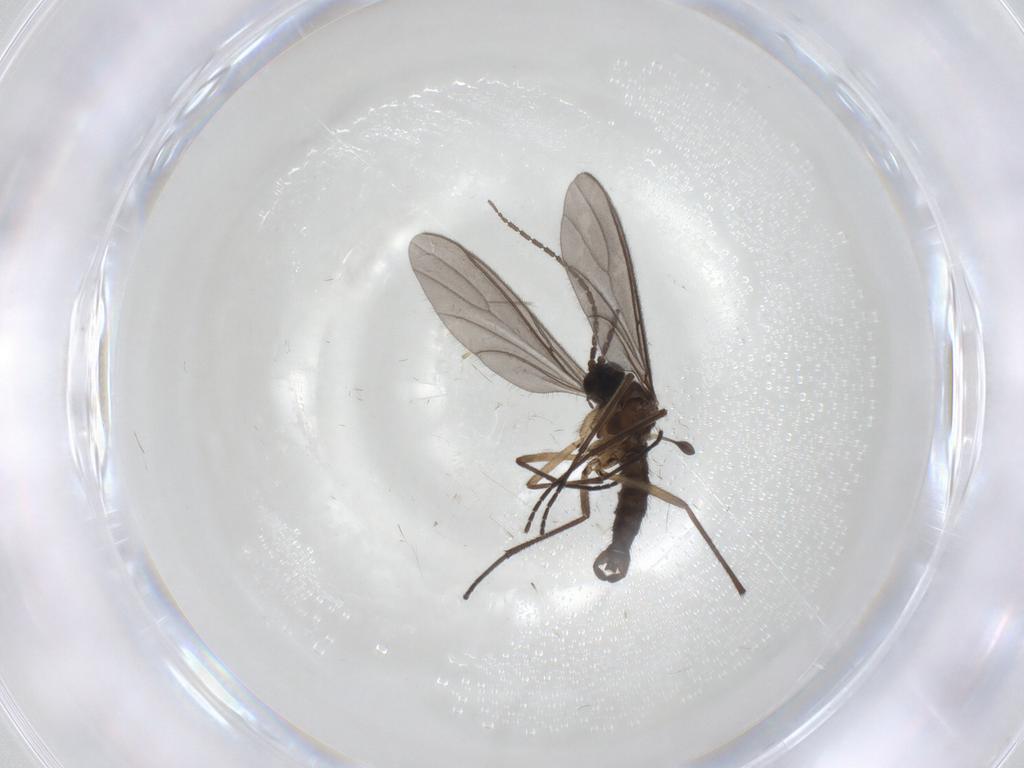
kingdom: Animalia
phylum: Arthropoda
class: Insecta
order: Diptera
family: Sciaridae
